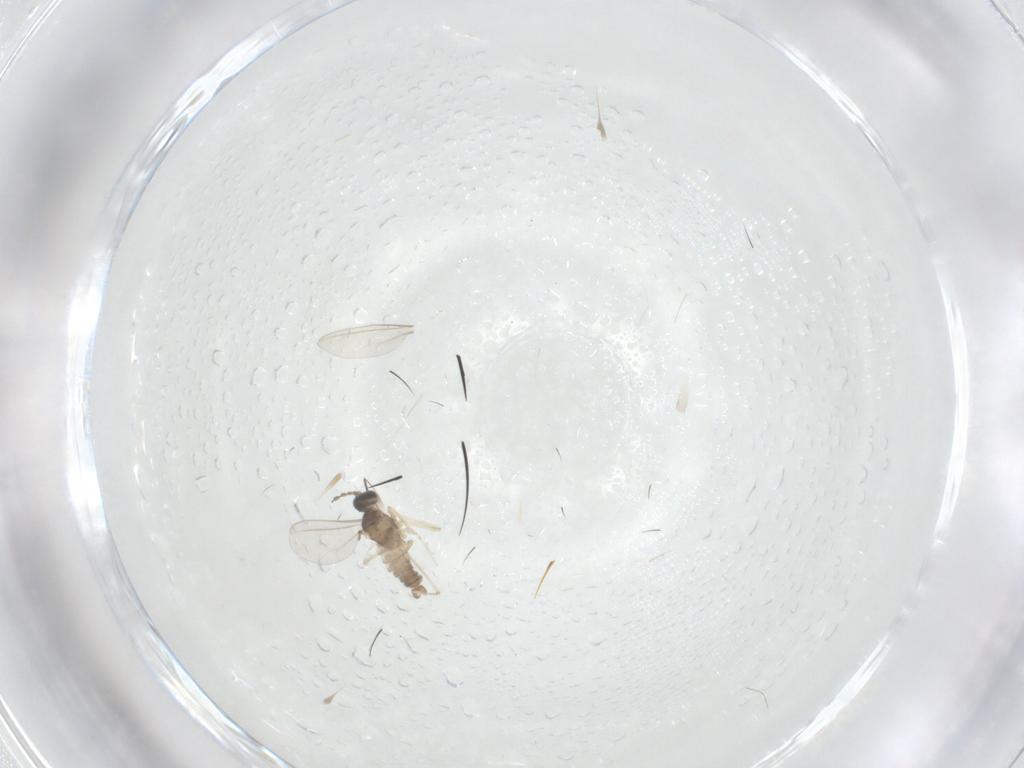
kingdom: Animalia
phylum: Arthropoda
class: Insecta
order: Diptera
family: Cecidomyiidae
